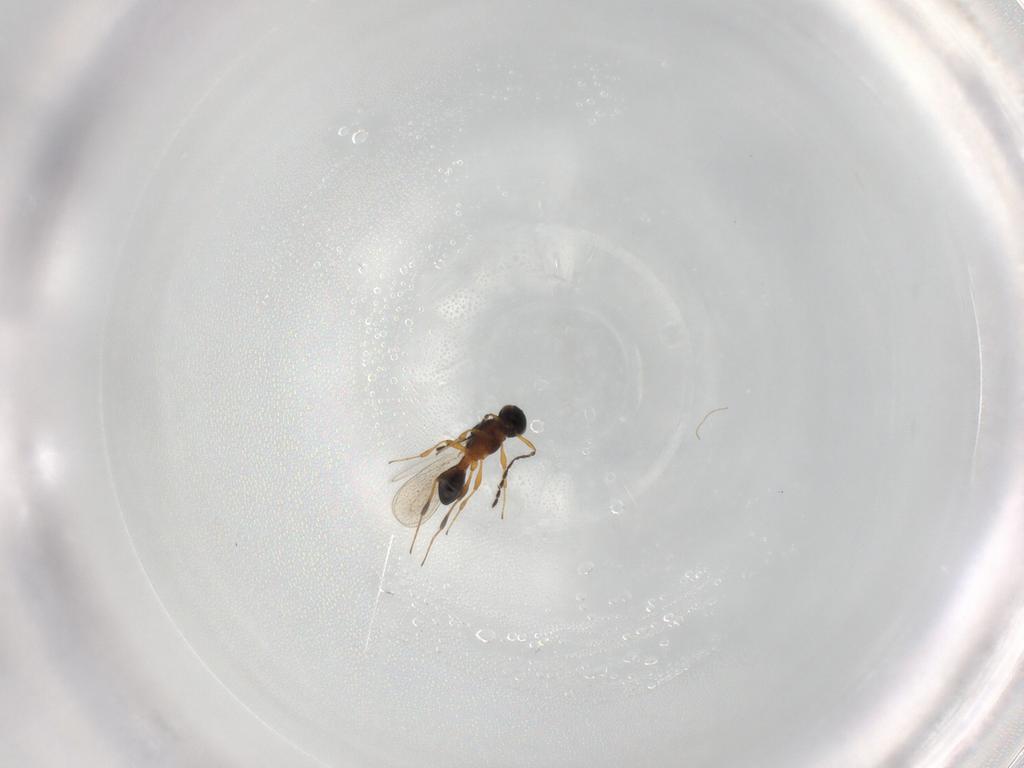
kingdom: Animalia
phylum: Arthropoda
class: Insecta
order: Hymenoptera
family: Platygastridae
